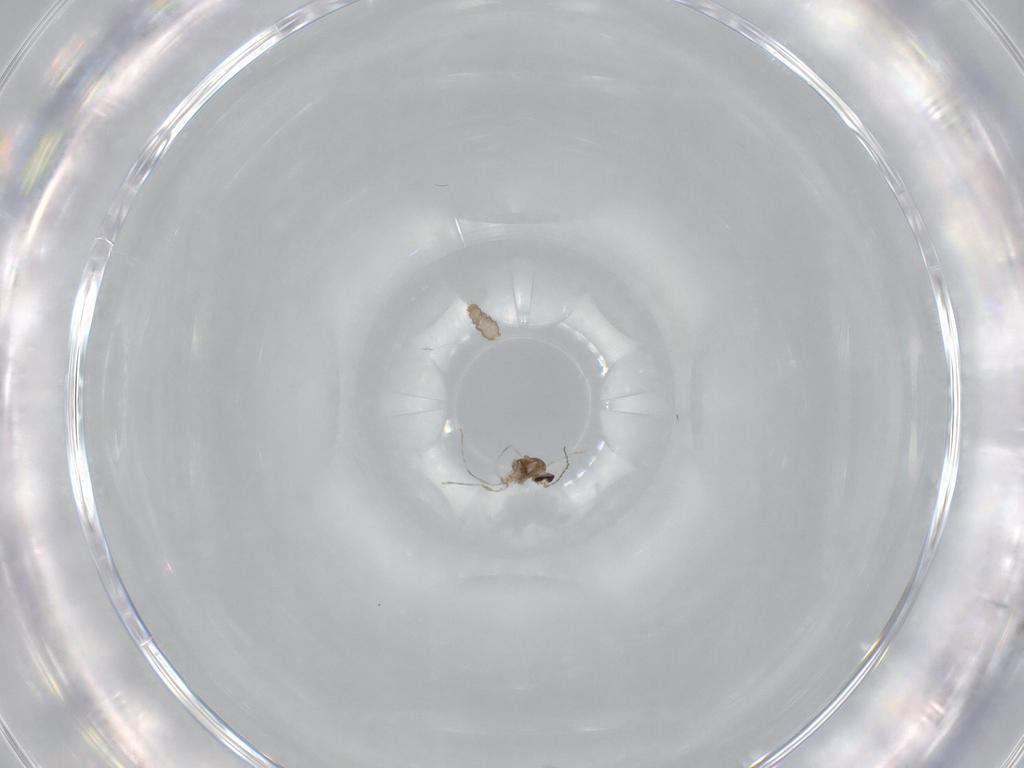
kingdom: Animalia
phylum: Arthropoda
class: Insecta
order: Diptera
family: Cecidomyiidae
